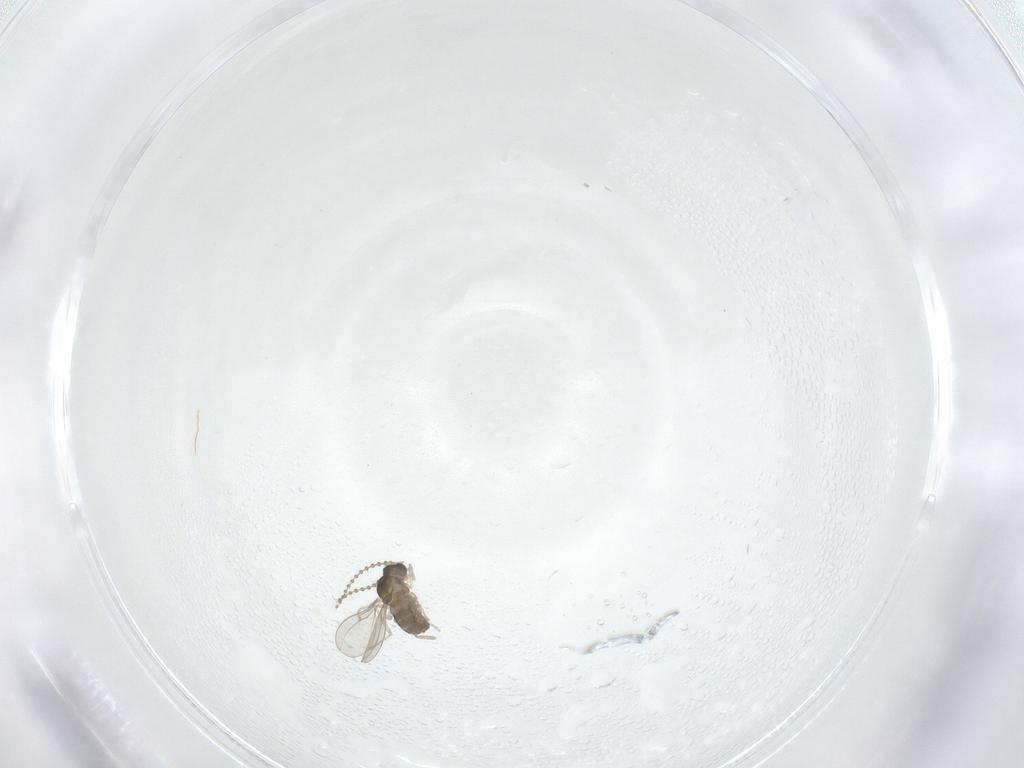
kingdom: Animalia
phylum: Arthropoda
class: Insecta
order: Diptera
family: Cecidomyiidae
